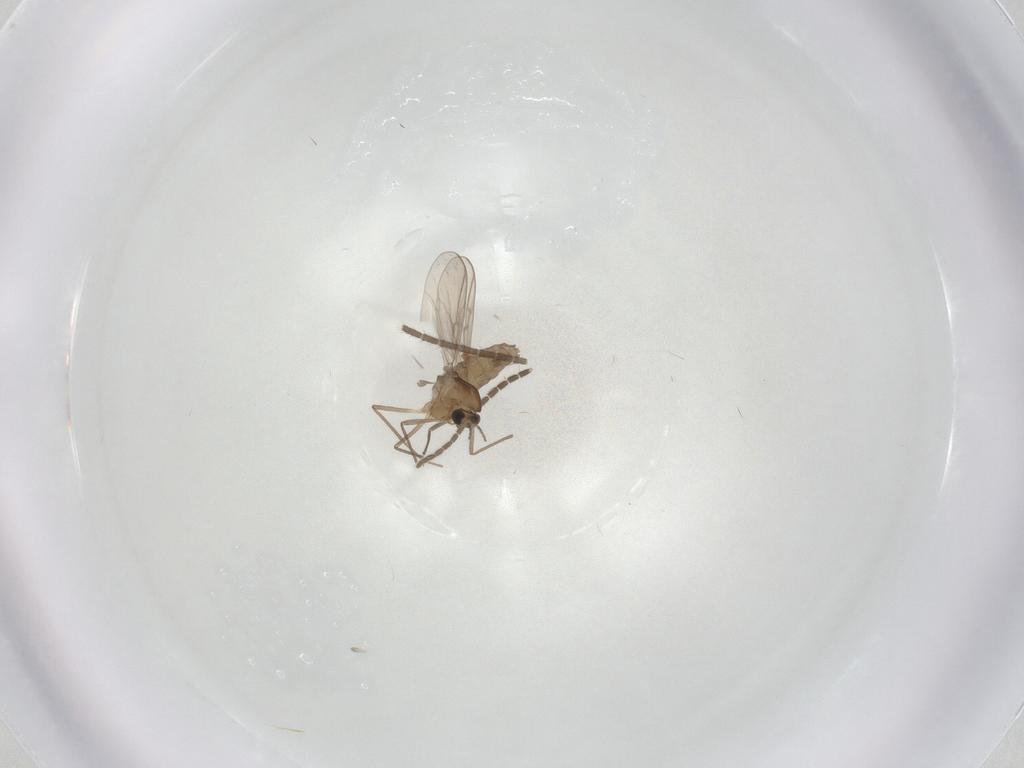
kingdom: Animalia
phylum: Arthropoda
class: Insecta
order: Diptera
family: Chironomidae
